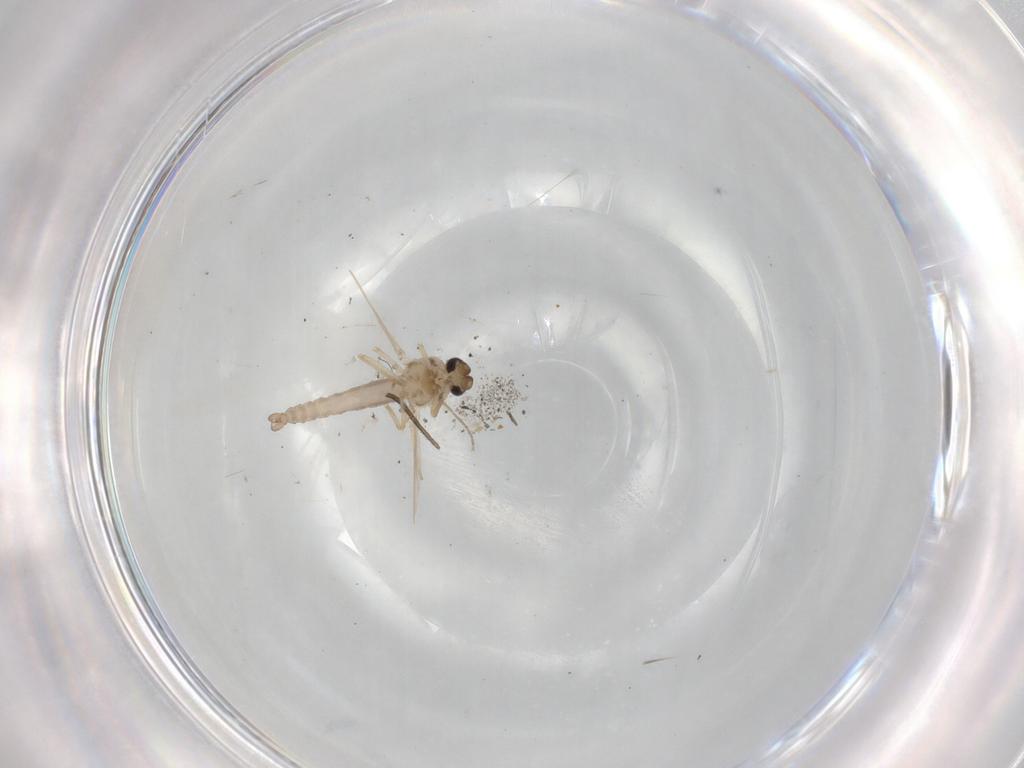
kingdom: Animalia
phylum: Arthropoda
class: Insecta
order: Diptera
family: Ceratopogonidae
